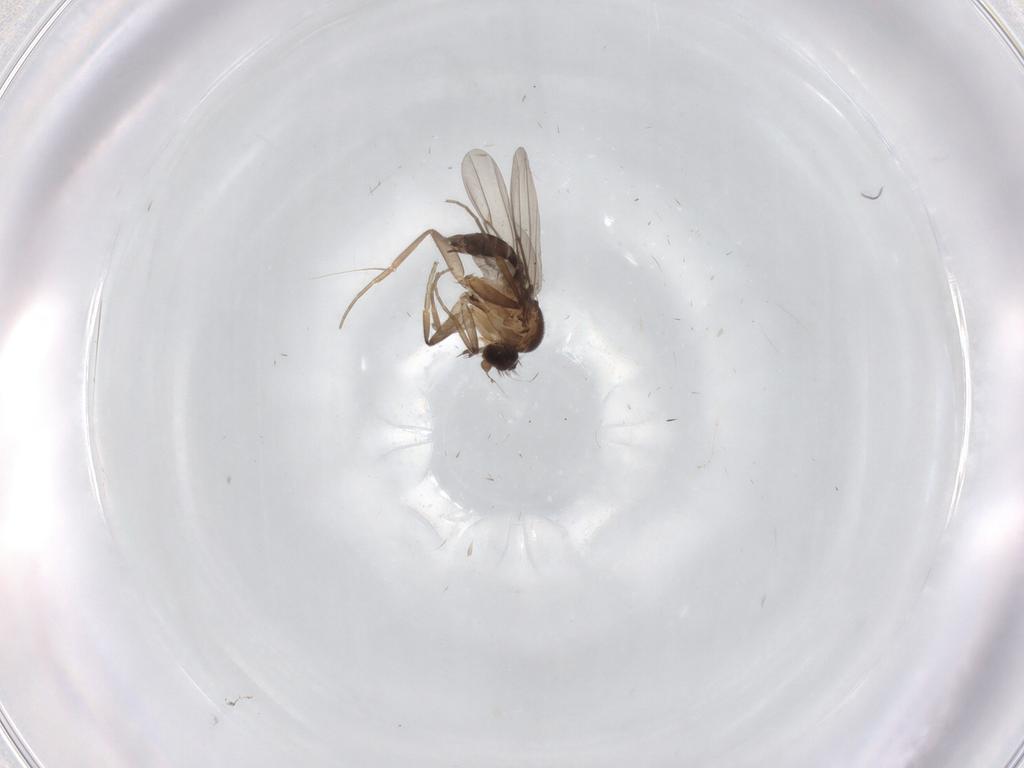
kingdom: Animalia
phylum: Arthropoda
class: Insecta
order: Diptera
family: Phoridae
